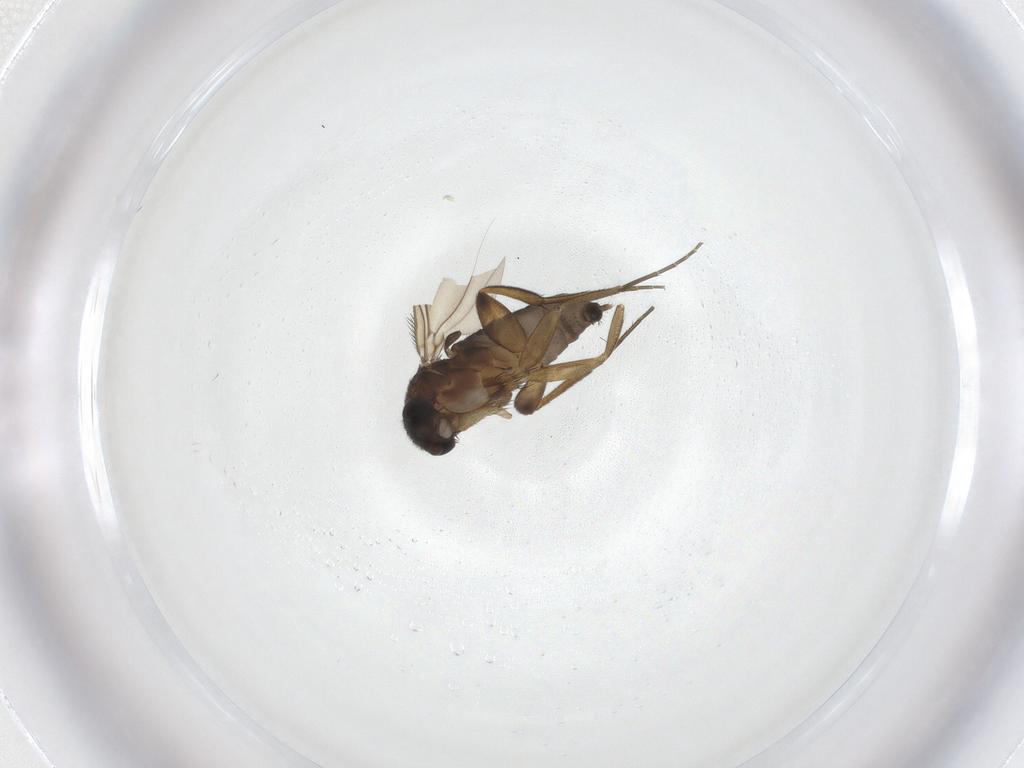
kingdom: Animalia
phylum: Arthropoda
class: Insecta
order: Diptera
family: Phoridae
